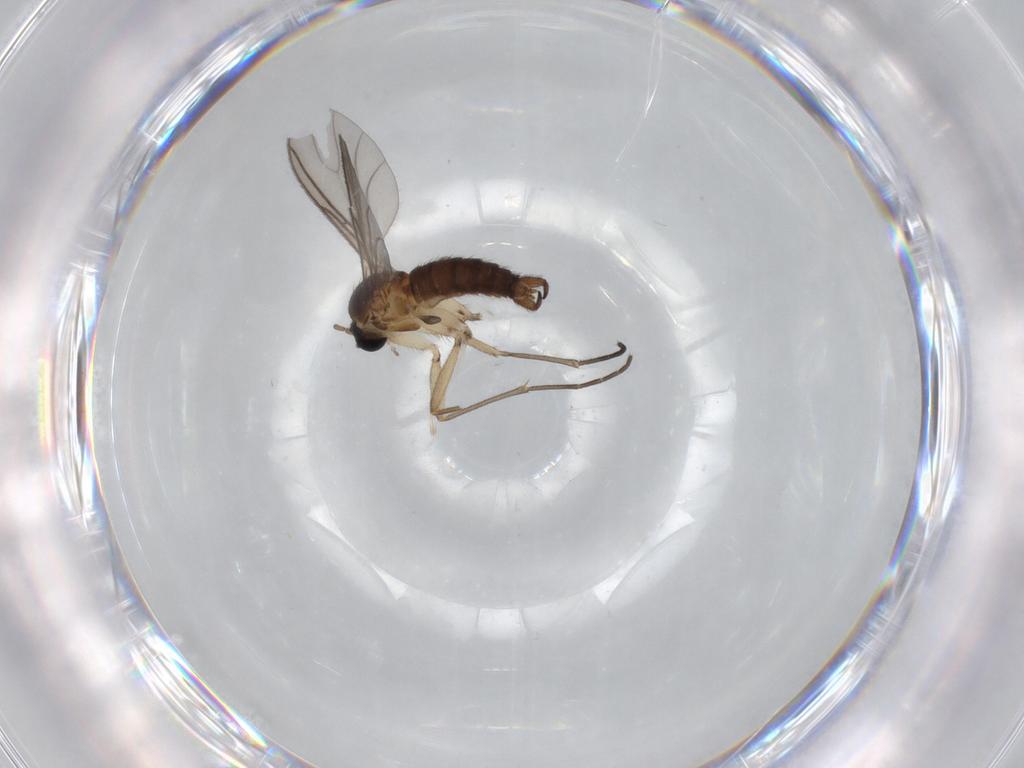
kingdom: Animalia
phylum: Arthropoda
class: Insecta
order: Diptera
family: Sciaridae
